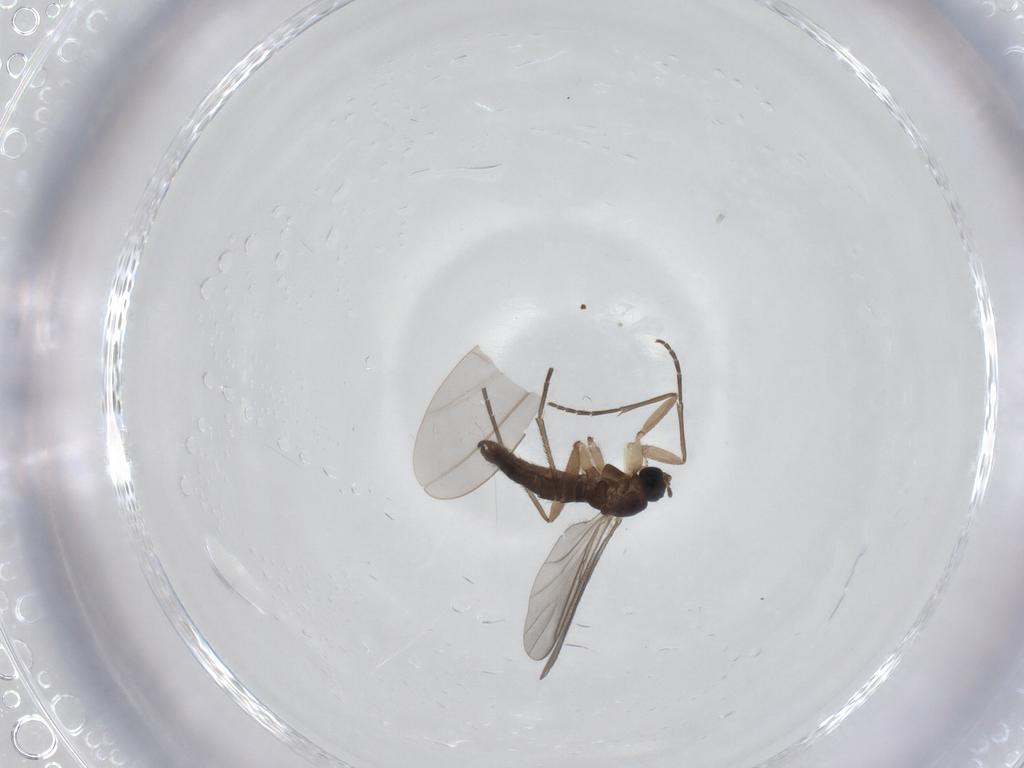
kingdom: Animalia
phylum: Arthropoda
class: Insecta
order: Diptera
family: Sciaridae
